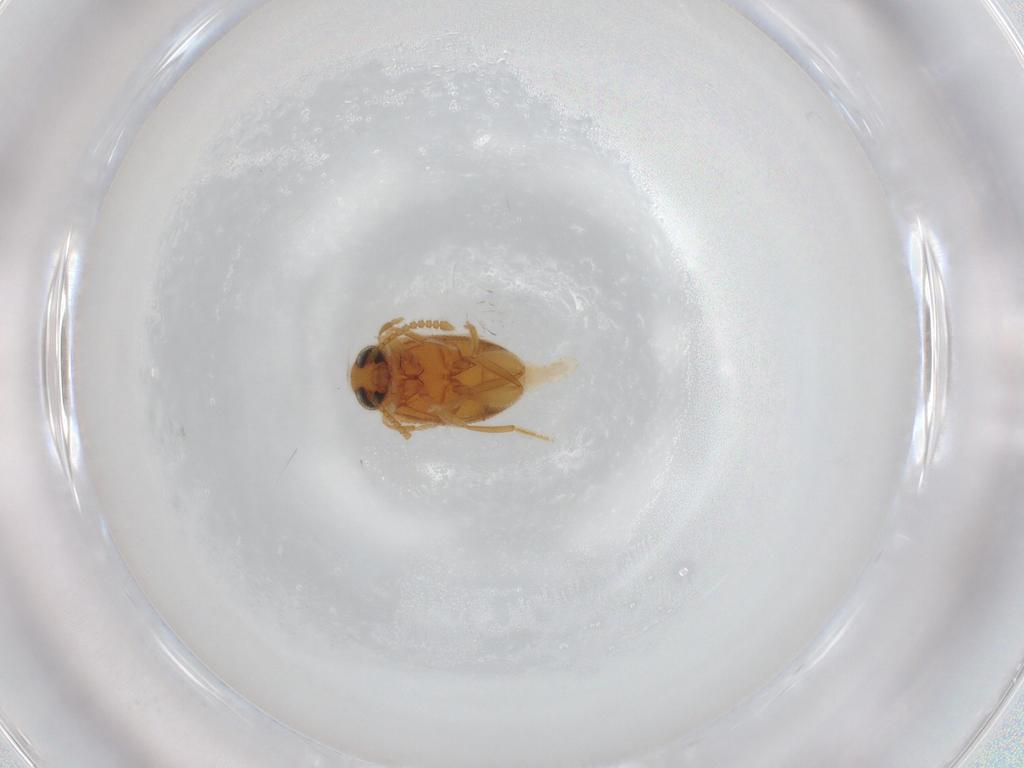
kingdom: Animalia
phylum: Arthropoda
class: Insecta
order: Coleoptera
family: Aderidae
